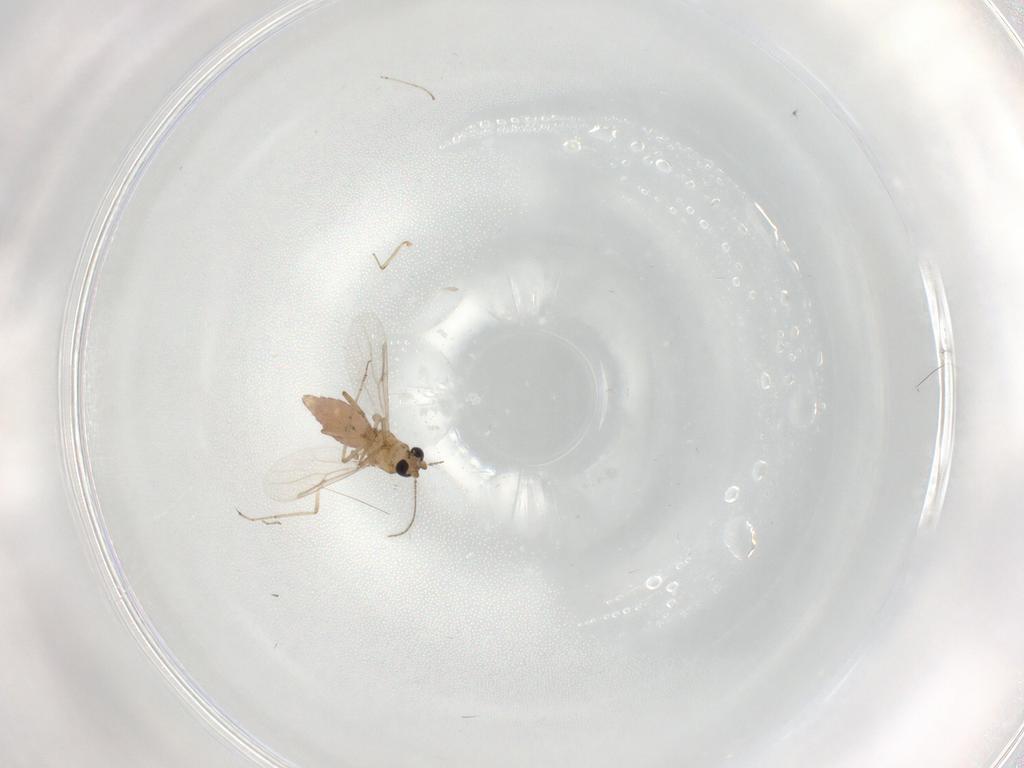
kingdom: Animalia
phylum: Arthropoda
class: Insecta
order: Diptera
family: Cecidomyiidae
